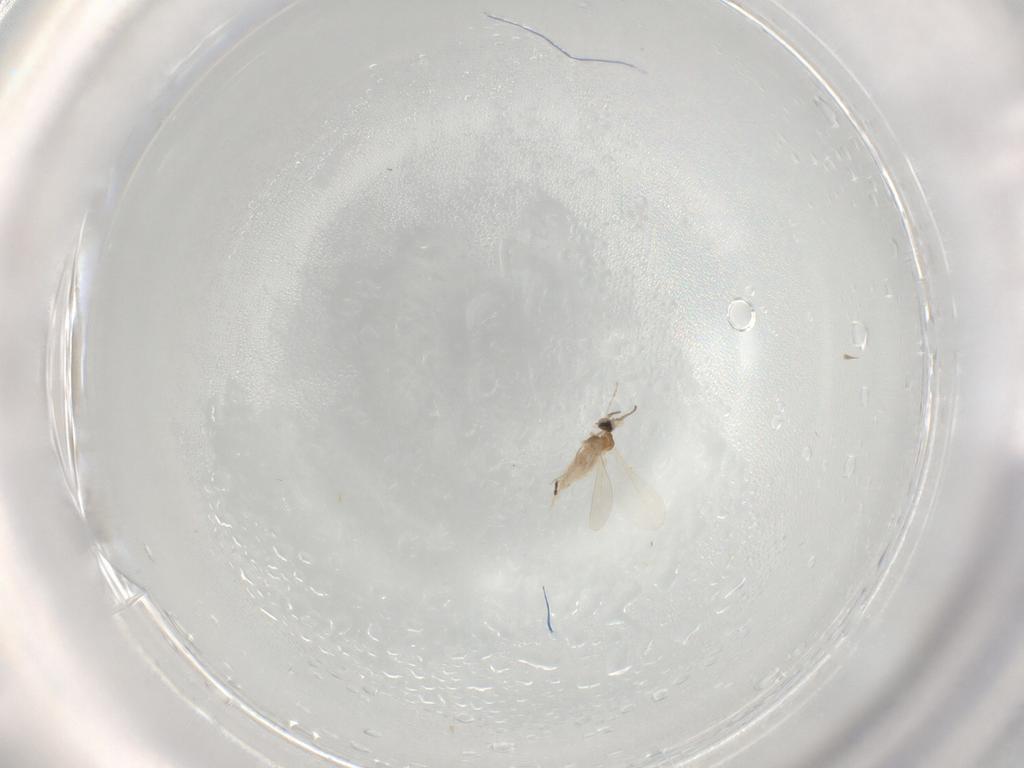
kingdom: Animalia
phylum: Arthropoda
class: Insecta
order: Diptera
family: Cecidomyiidae
